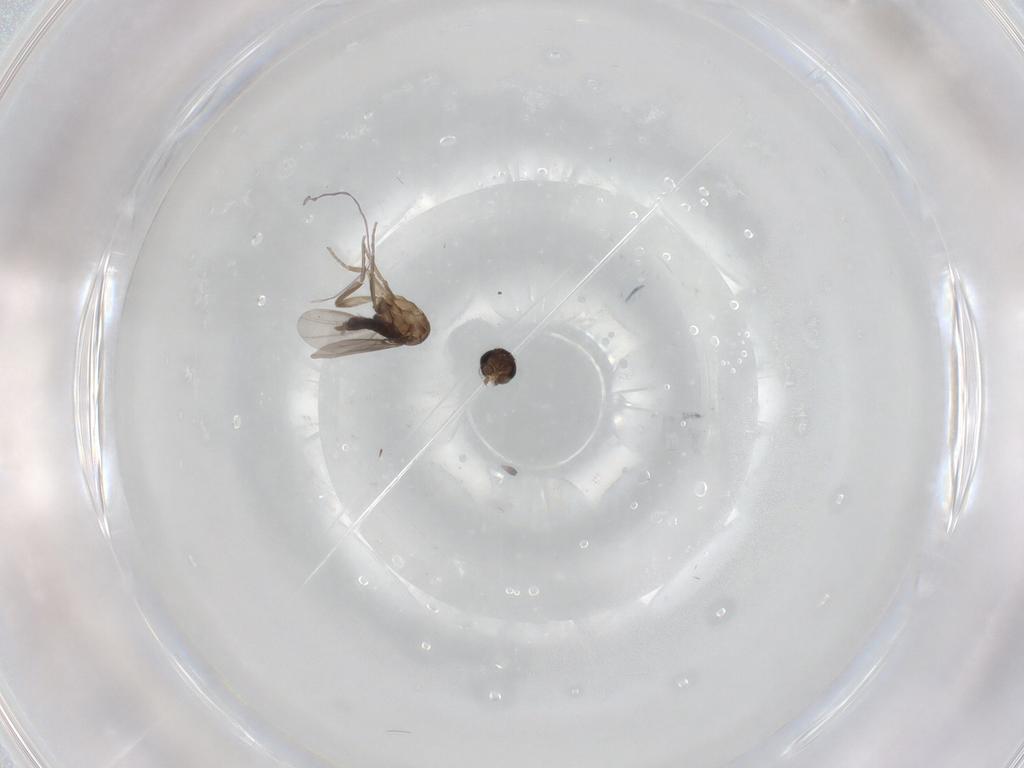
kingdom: Animalia
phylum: Arthropoda
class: Insecta
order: Diptera
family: Phoridae
